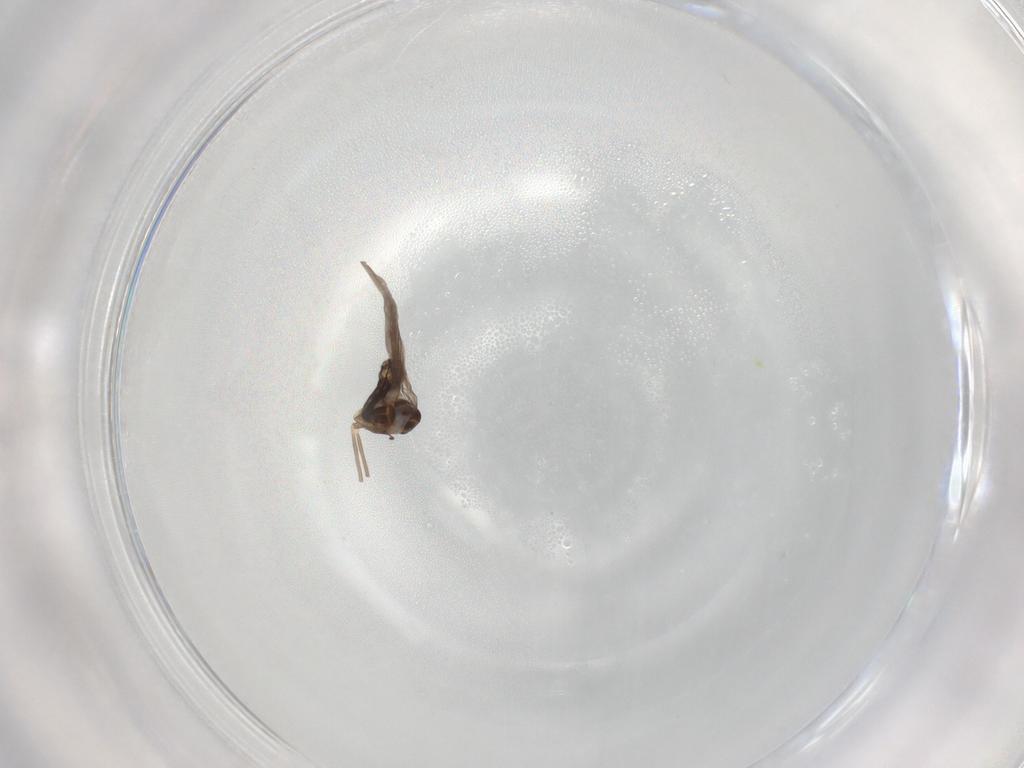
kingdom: Animalia
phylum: Arthropoda
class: Insecta
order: Diptera
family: Chironomidae
